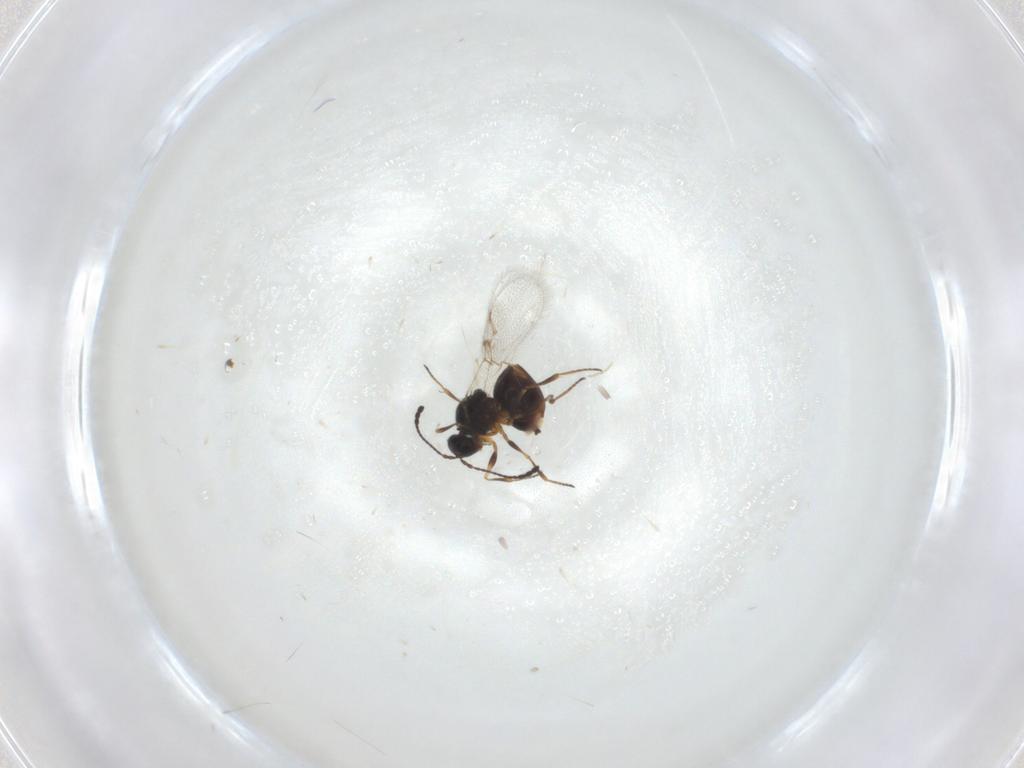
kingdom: Animalia
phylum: Arthropoda
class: Insecta
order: Hymenoptera
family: Figitidae
